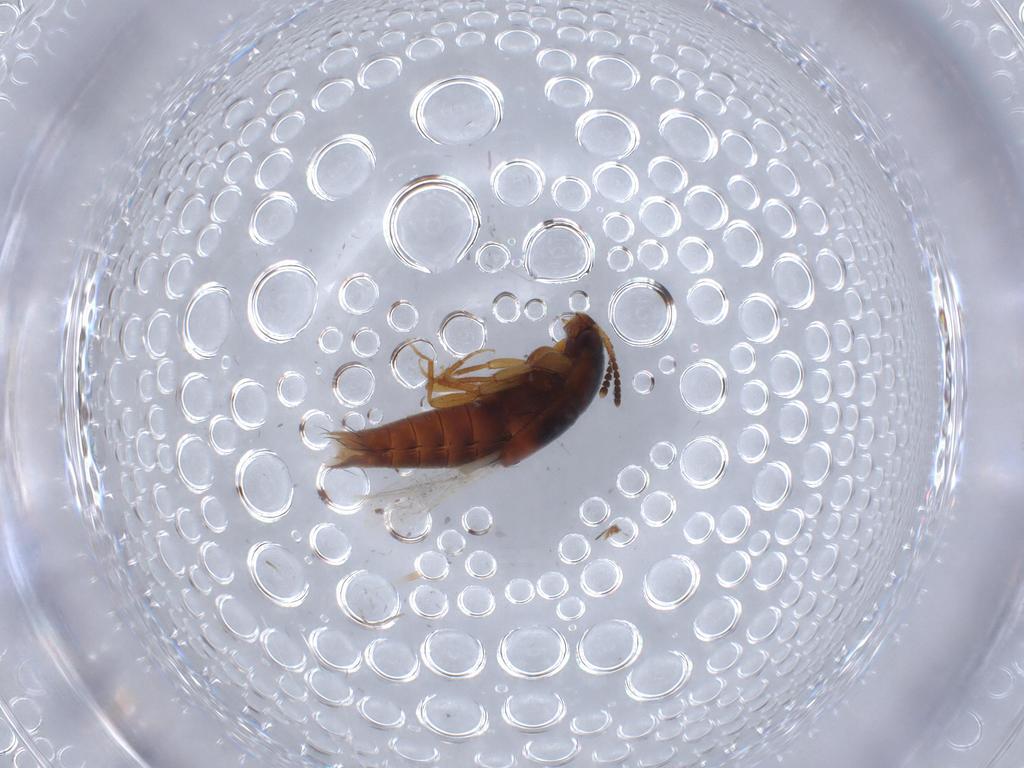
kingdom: Animalia
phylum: Arthropoda
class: Insecta
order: Coleoptera
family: Staphylinidae
